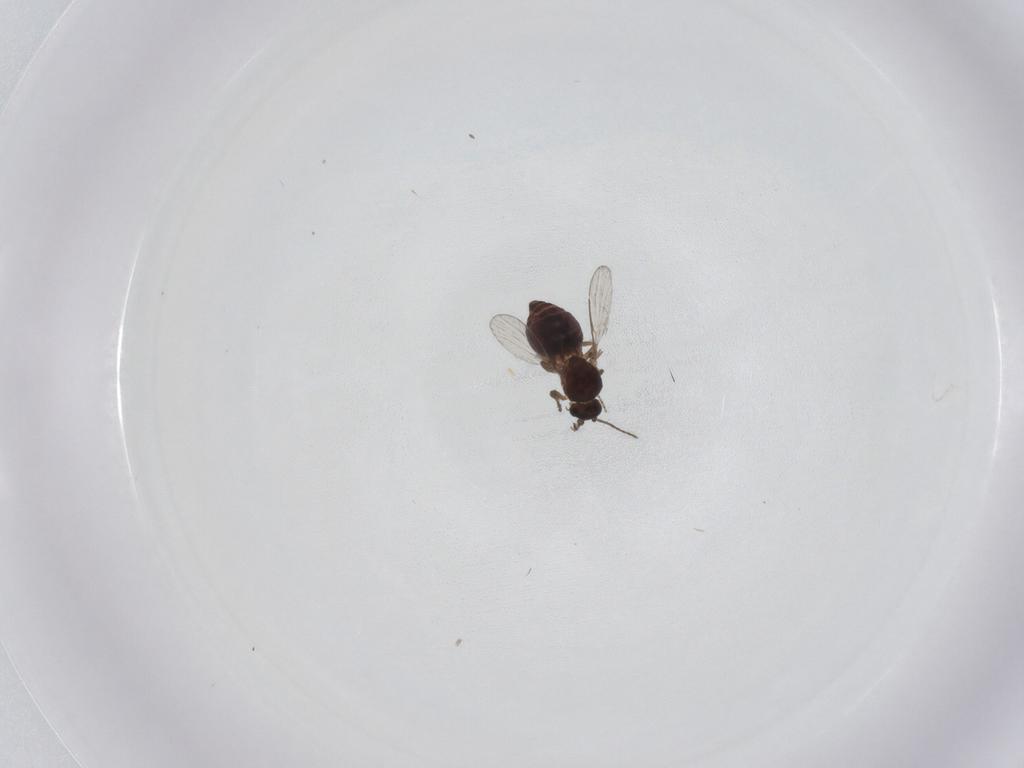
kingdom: Animalia
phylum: Arthropoda
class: Insecta
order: Diptera
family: Ceratopogonidae
